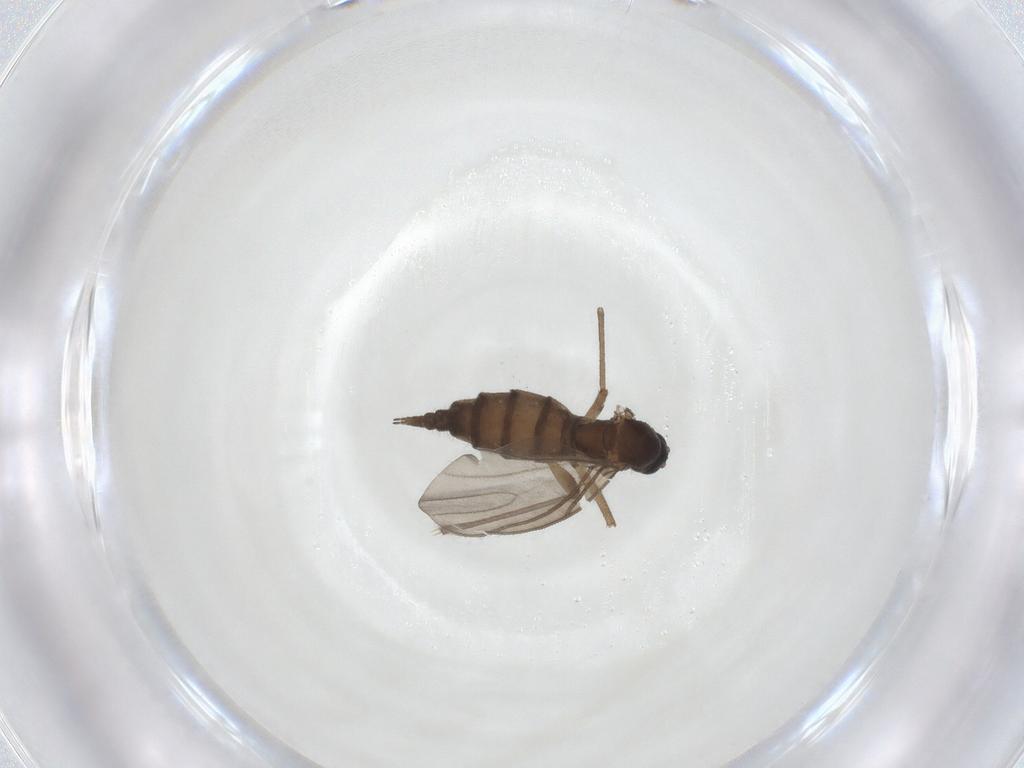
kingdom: Animalia
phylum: Arthropoda
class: Insecta
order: Diptera
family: Sciaridae
